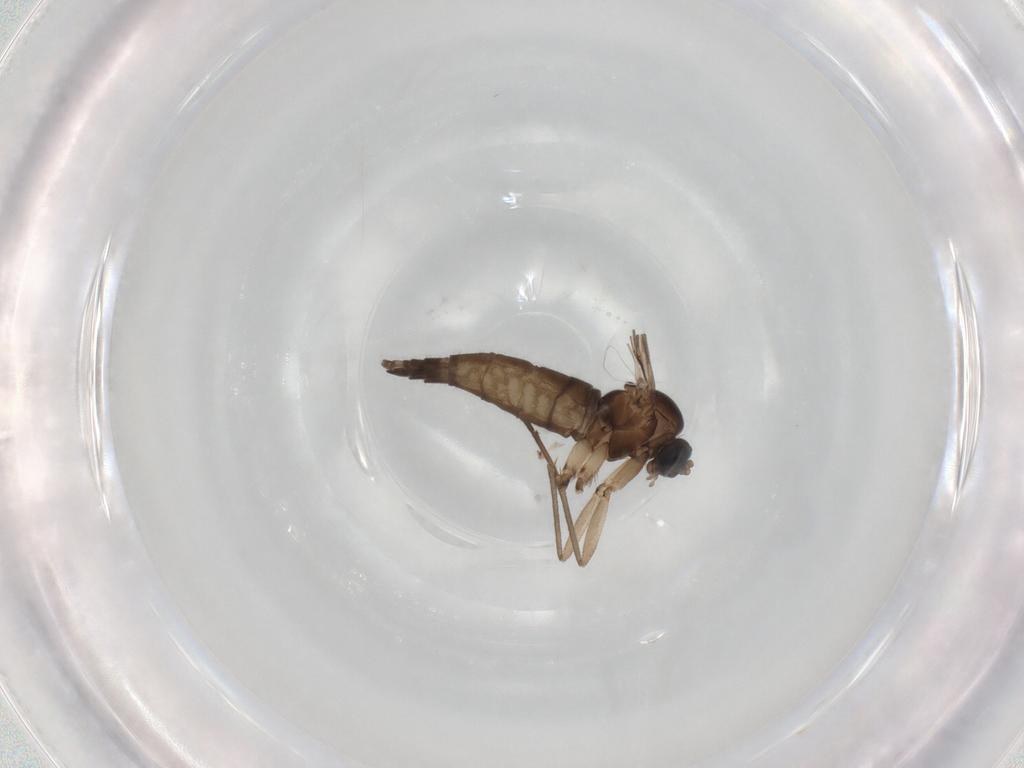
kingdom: Animalia
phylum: Arthropoda
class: Insecta
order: Diptera
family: Sciaridae
